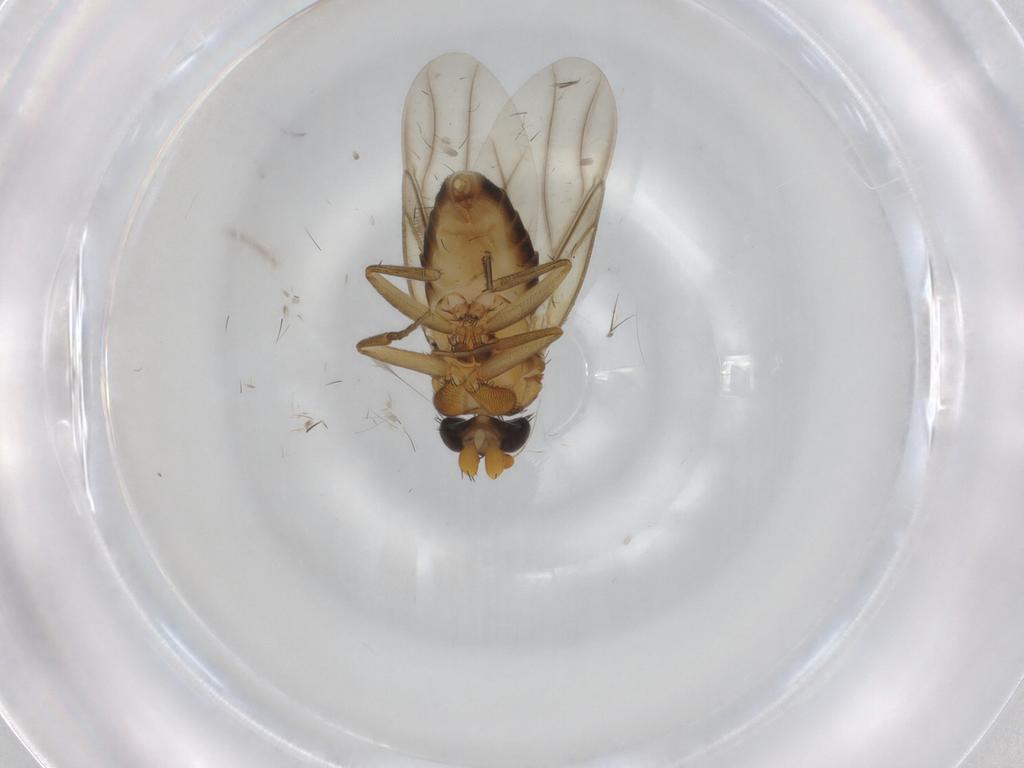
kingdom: Animalia
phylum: Arthropoda
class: Insecta
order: Diptera
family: Phoridae
